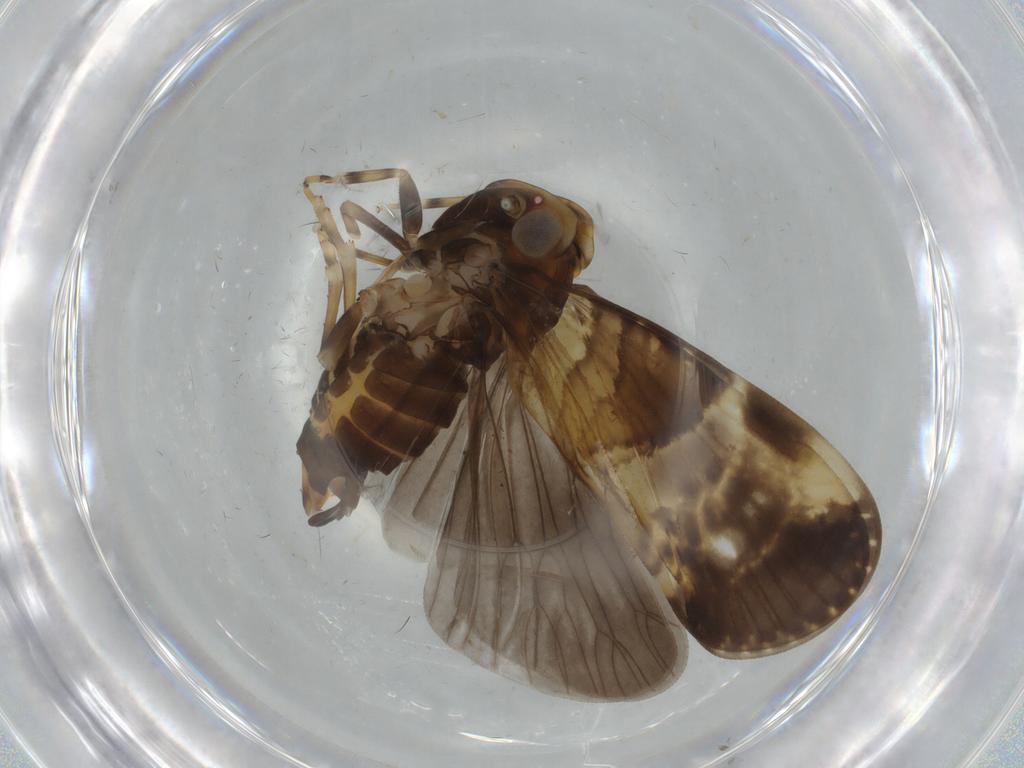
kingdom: Animalia
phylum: Arthropoda
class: Insecta
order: Hemiptera
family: Cixiidae
